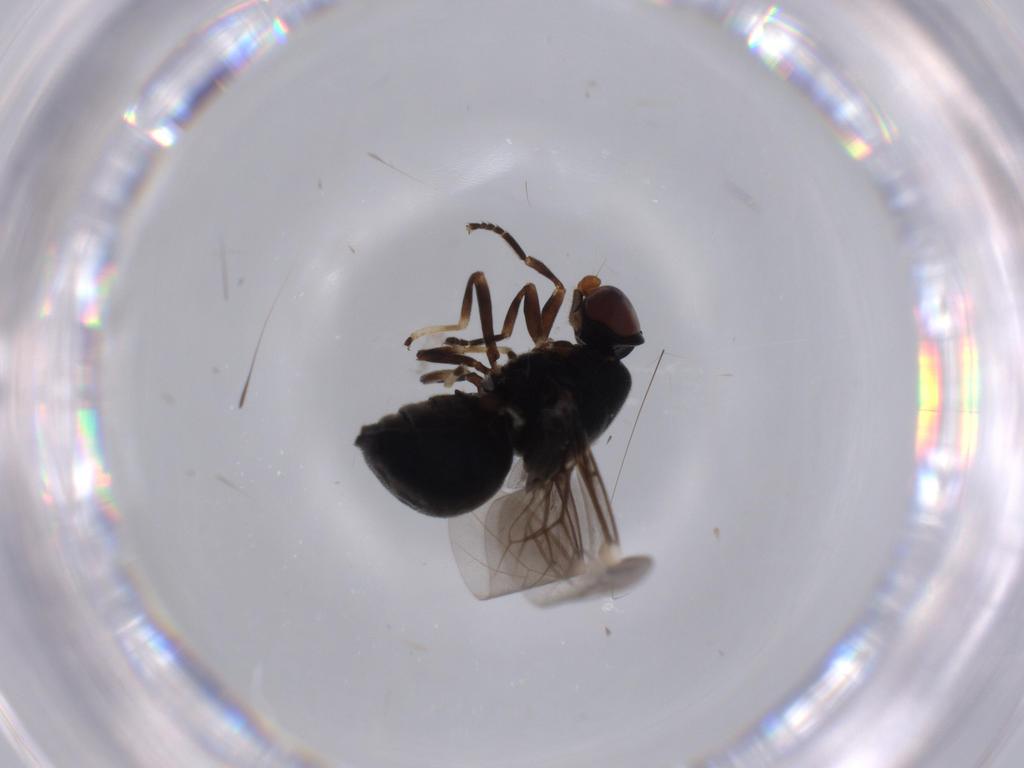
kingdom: Animalia
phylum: Arthropoda
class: Insecta
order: Diptera
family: Stratiomyidae
